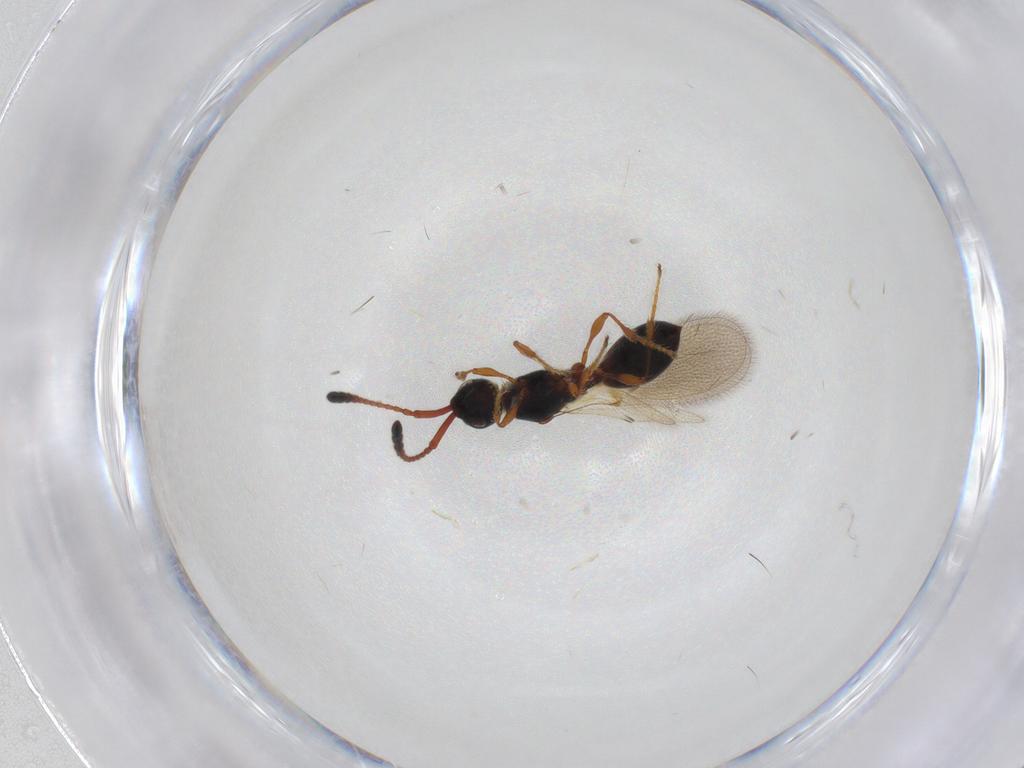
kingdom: Animalia
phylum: Arthropoda
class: Insecta
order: Hymenoptera
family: Diapriidae
